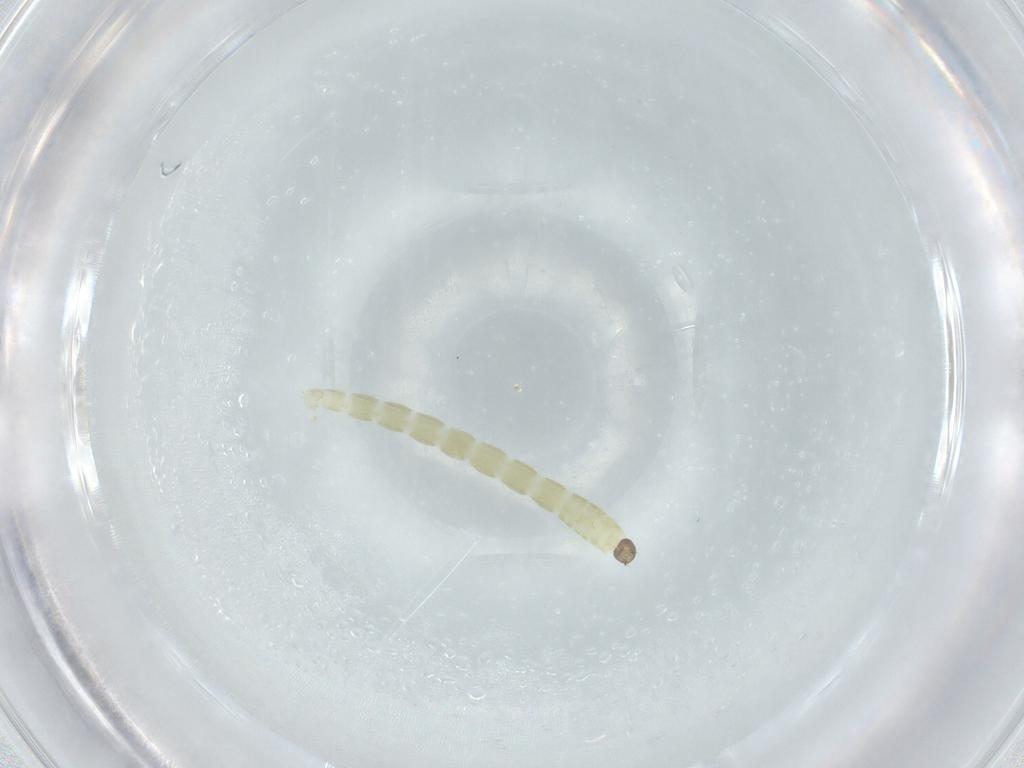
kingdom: Animalia
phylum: Arthropoda
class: Insecta
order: Diptera
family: Chironomidae
